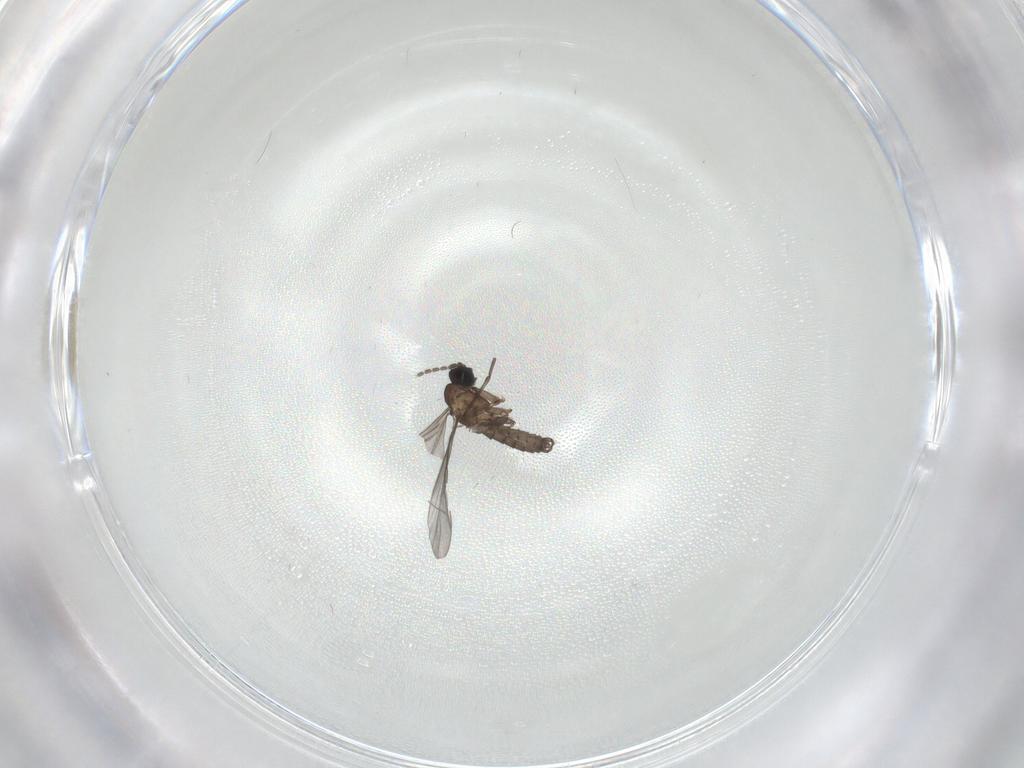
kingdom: Animalia
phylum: Arthropoda
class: Insecta
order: Diptera
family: Sciaridae
